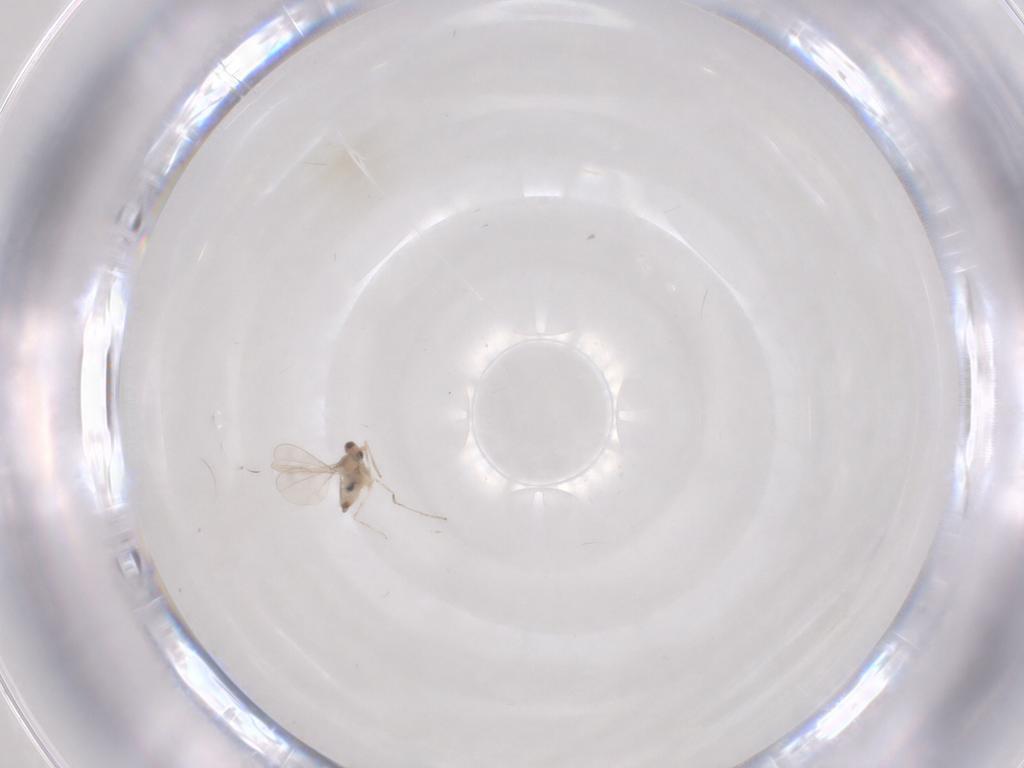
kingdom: Animalia
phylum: Arthropoda
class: Insecta
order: Diptera
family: Cecidomyiidae
